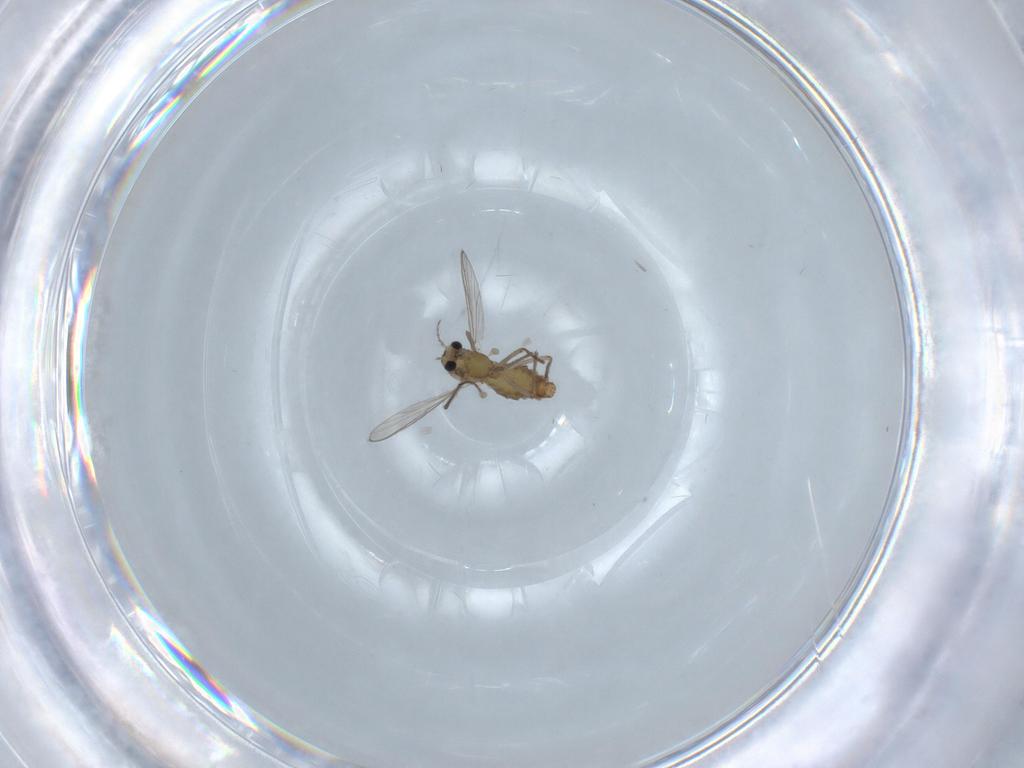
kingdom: Animalia
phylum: Arthropoda
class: Insecta
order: Diptera
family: Chironomidae
